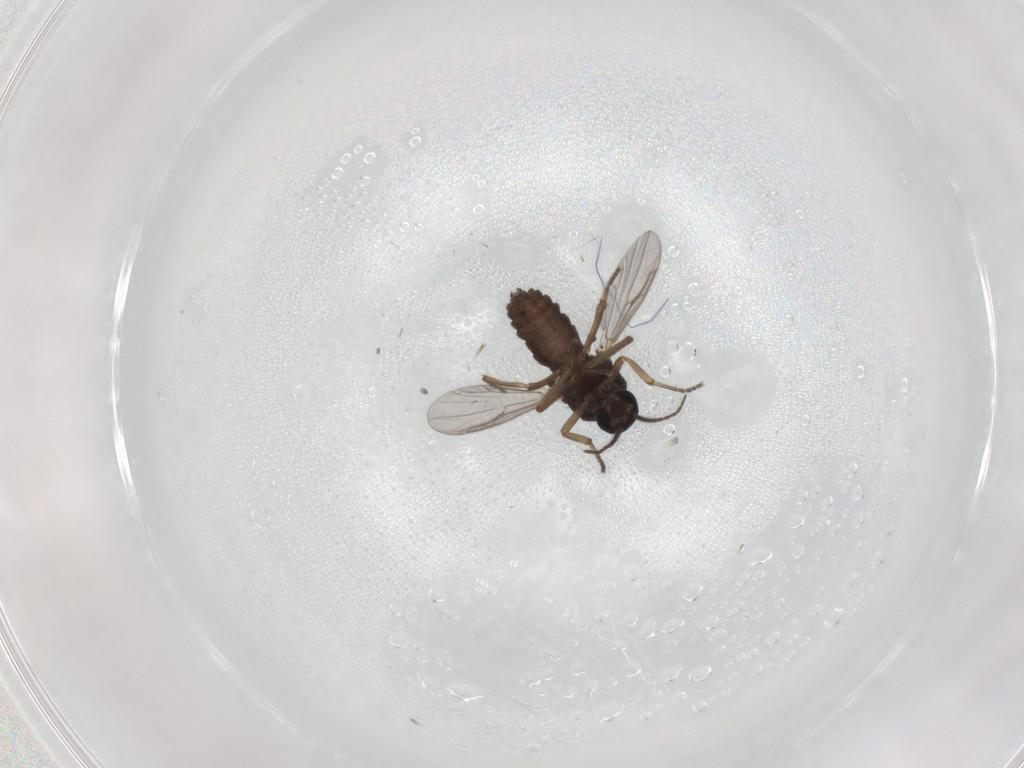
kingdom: Animalia
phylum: Arthropoda
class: Insecta
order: Diptera
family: Ceratopogonidae
